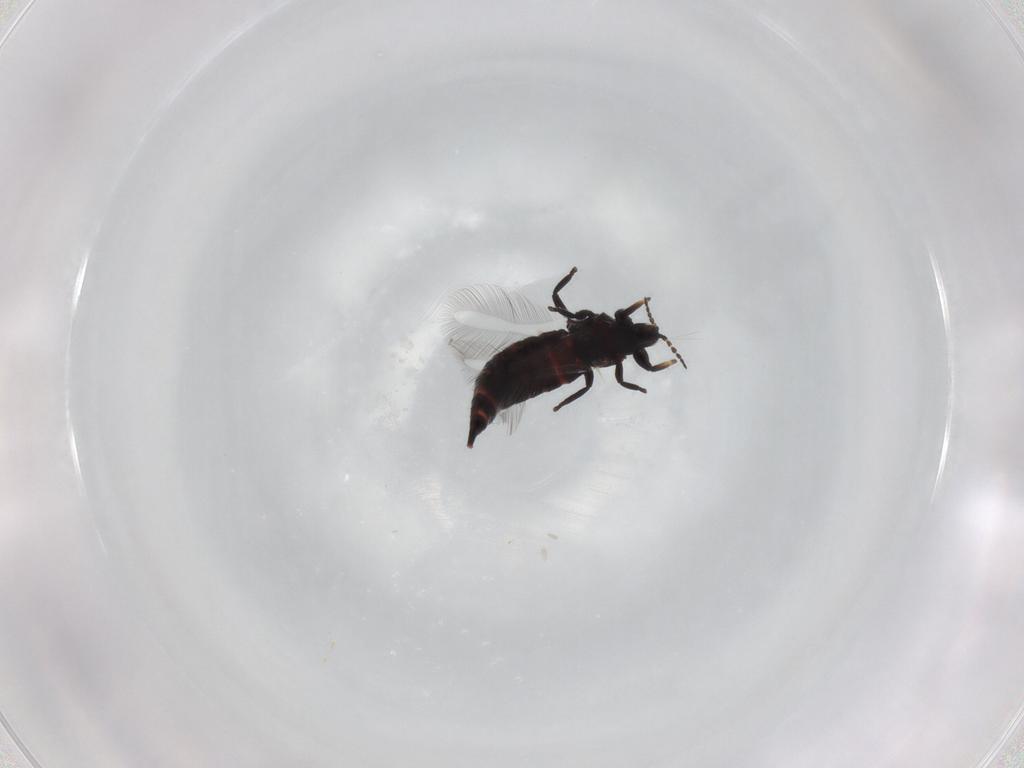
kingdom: Animalia
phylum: Arthropoda
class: Insecta
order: Thysanoptera
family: Phlaeothripidae
